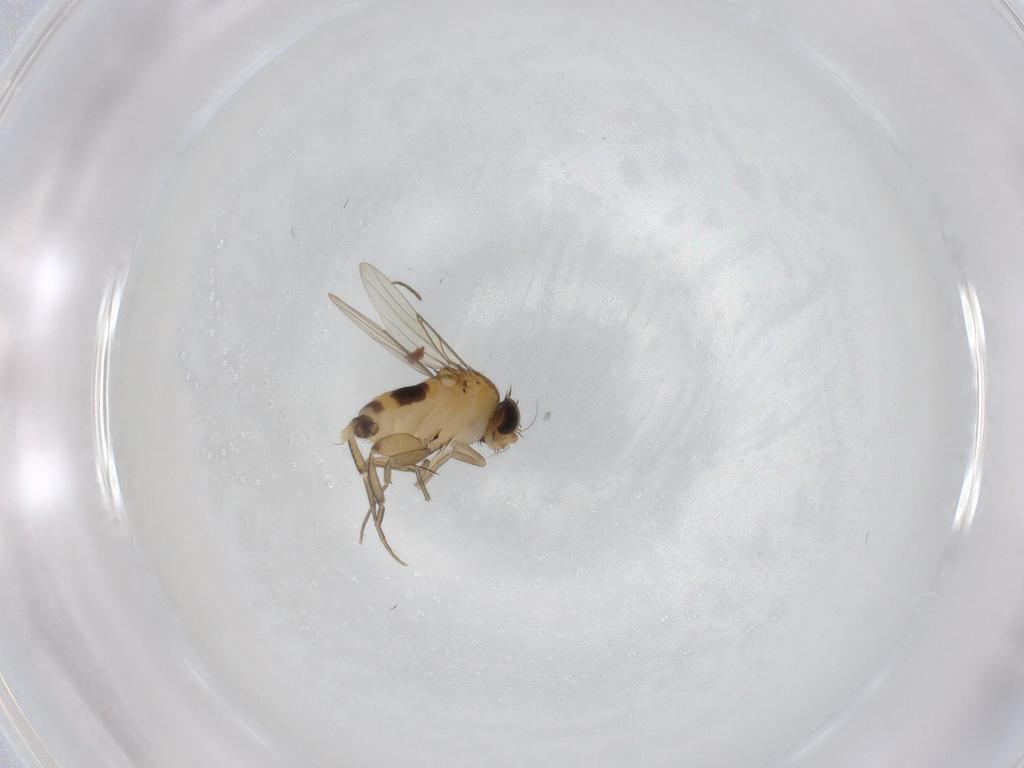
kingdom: Animalia
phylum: Arthropoda
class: Insecta
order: Diptera
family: Phoridae
